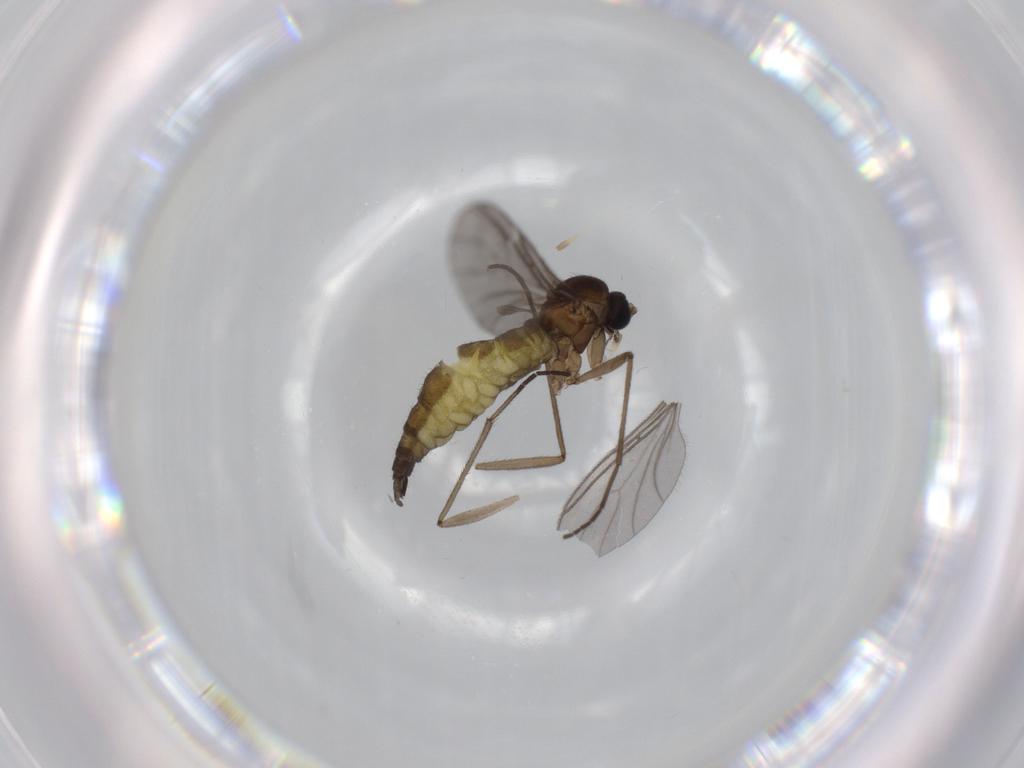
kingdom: Animalia
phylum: Arthropoda
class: Insecta
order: Diptera
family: Sciaridae
